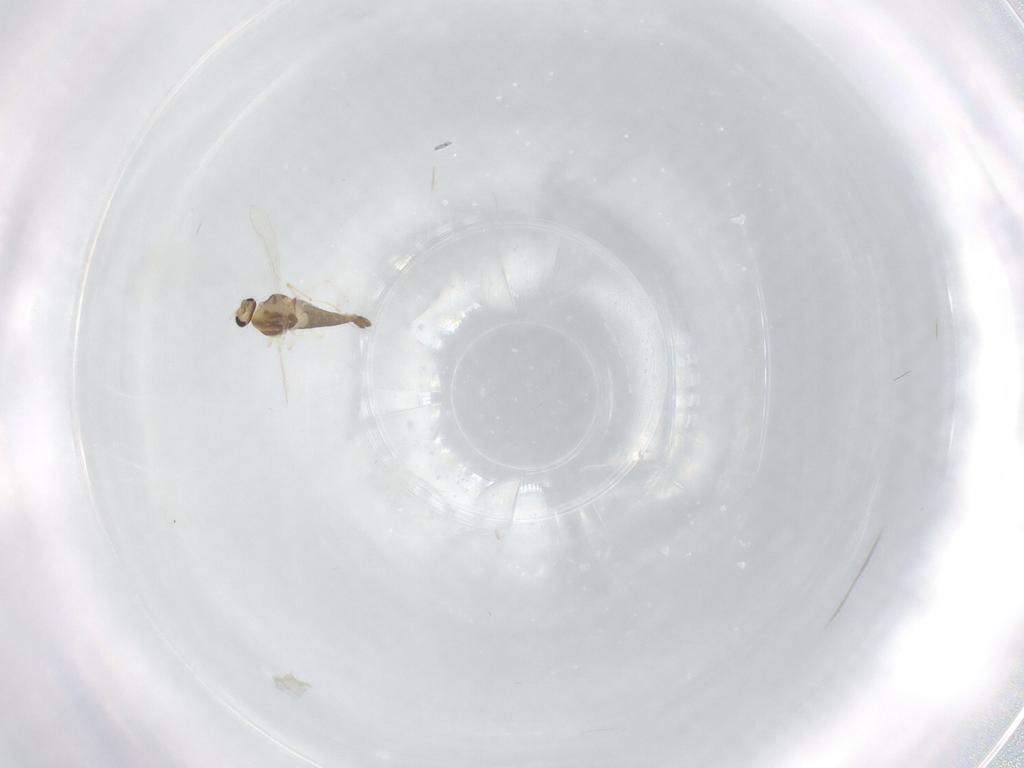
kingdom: Animalia
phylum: Arthropoda
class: Insecta
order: Diptera
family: Chironomidae
